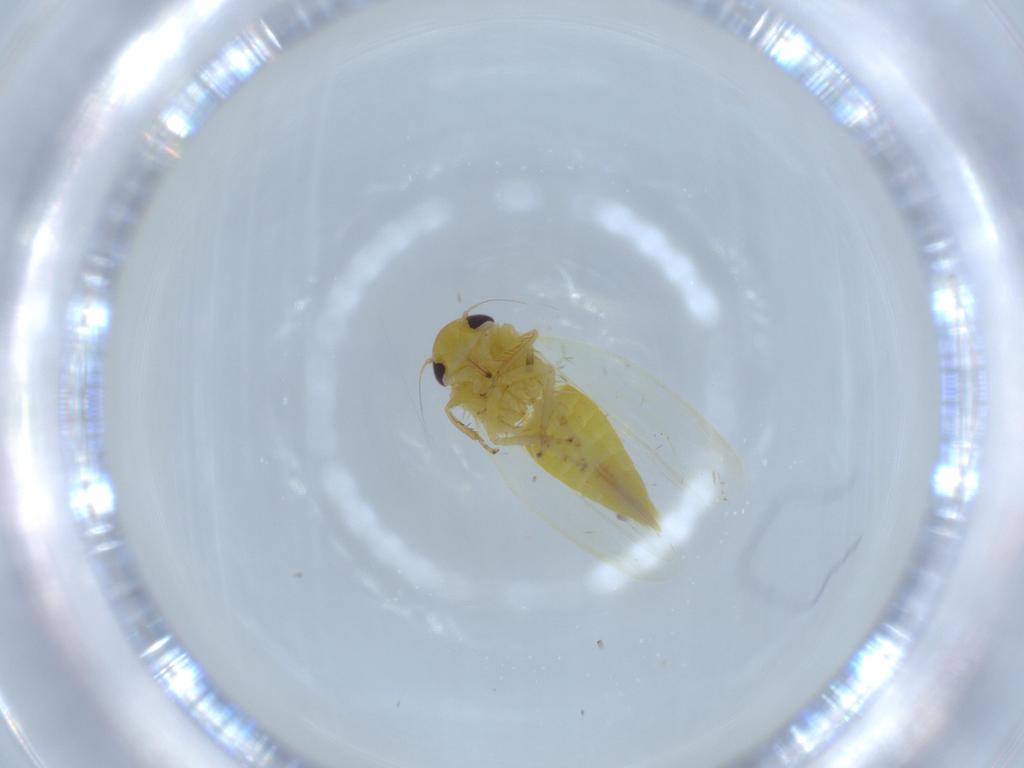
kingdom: Animalia
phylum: Arthropoda
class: Insecta
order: Hemiptera
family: Cicadellidae
